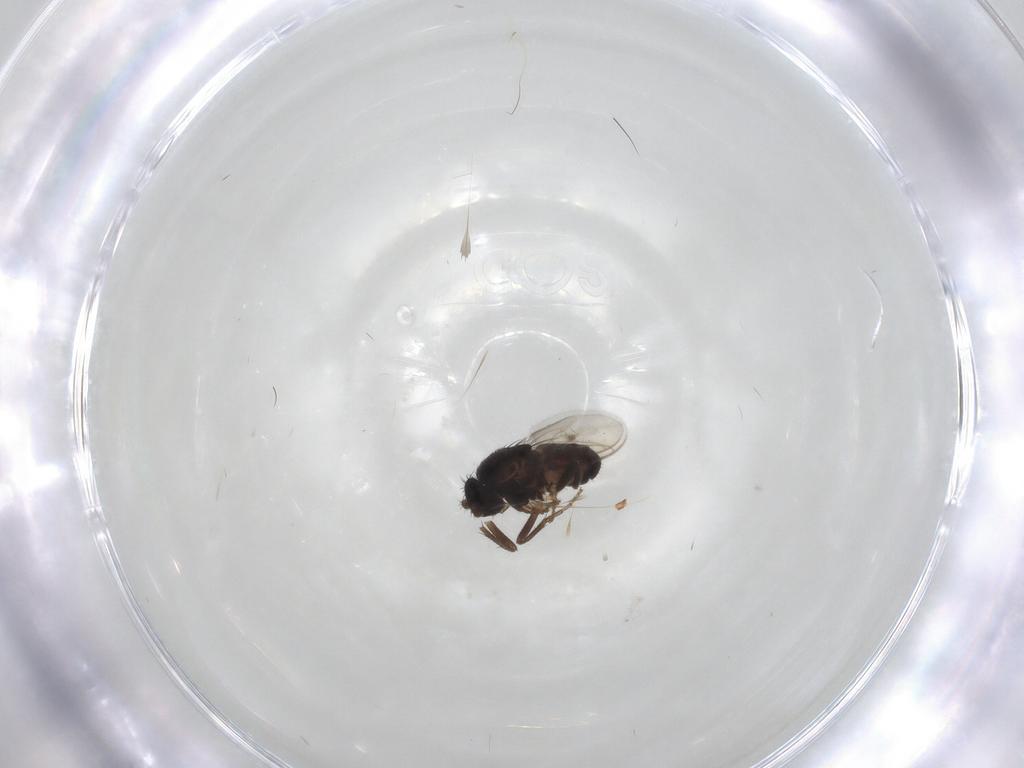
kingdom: Animalia
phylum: Arthropoda
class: Insecta
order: Diptera
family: Sphaeroceridae
